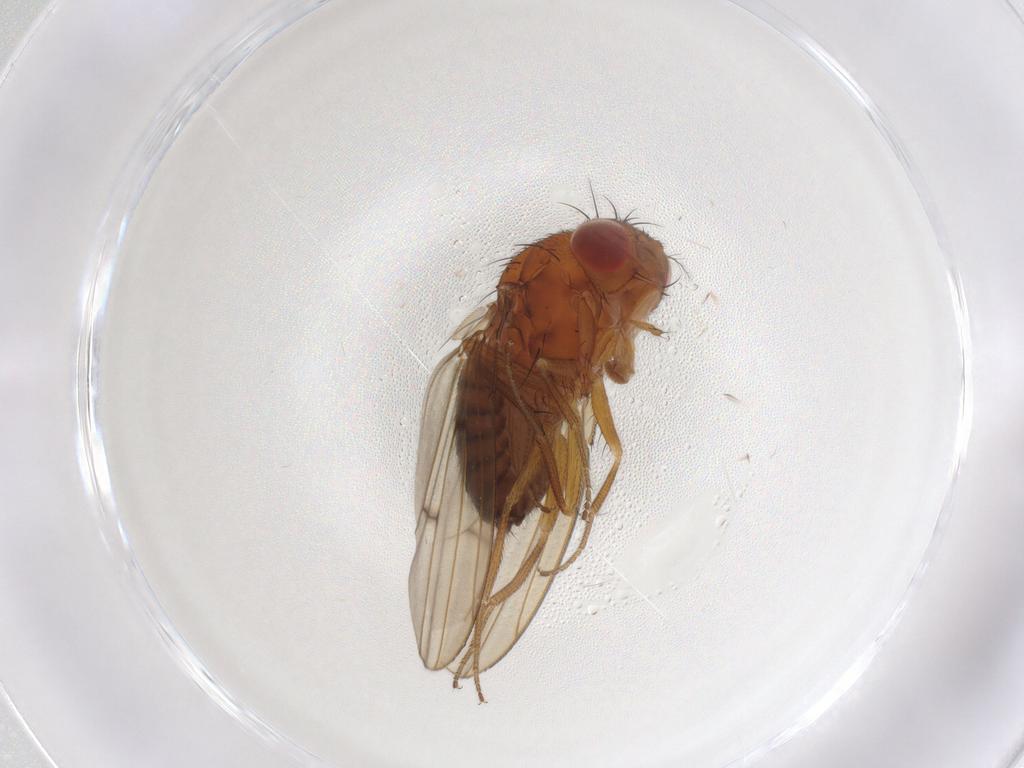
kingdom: Animalia
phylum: Arthropoda
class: Insecta
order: Diptera
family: Drosophilidae
